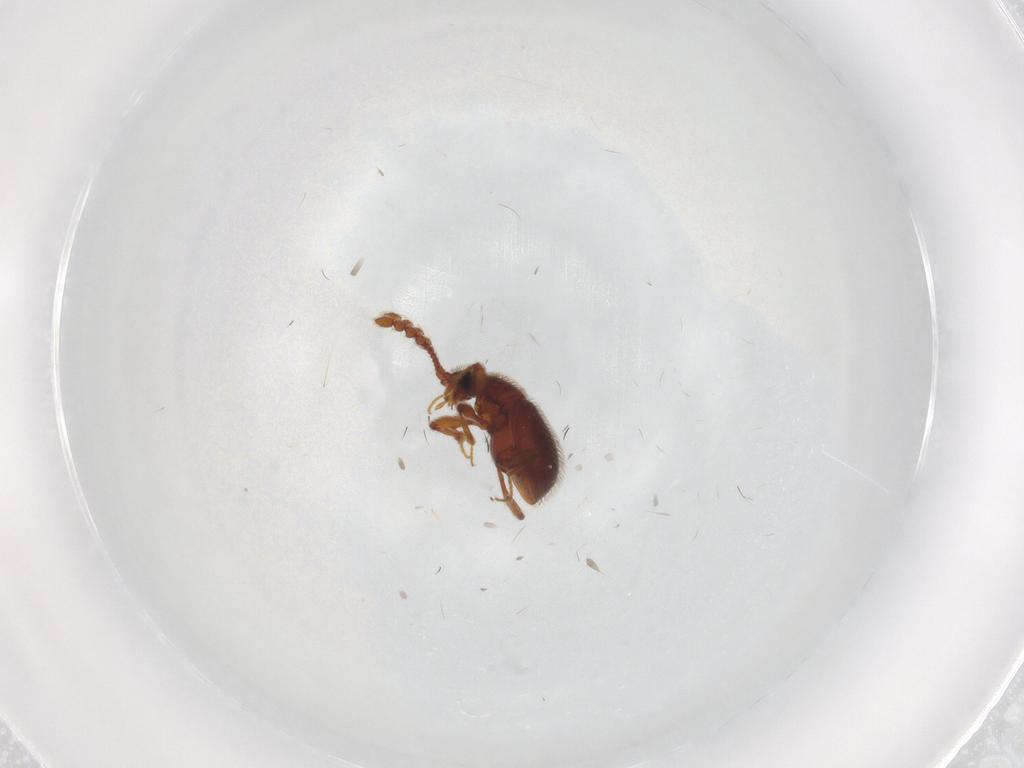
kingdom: Animalia
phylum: Arthropoda
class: Insecta
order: Coleoptera
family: Staphylinidae
